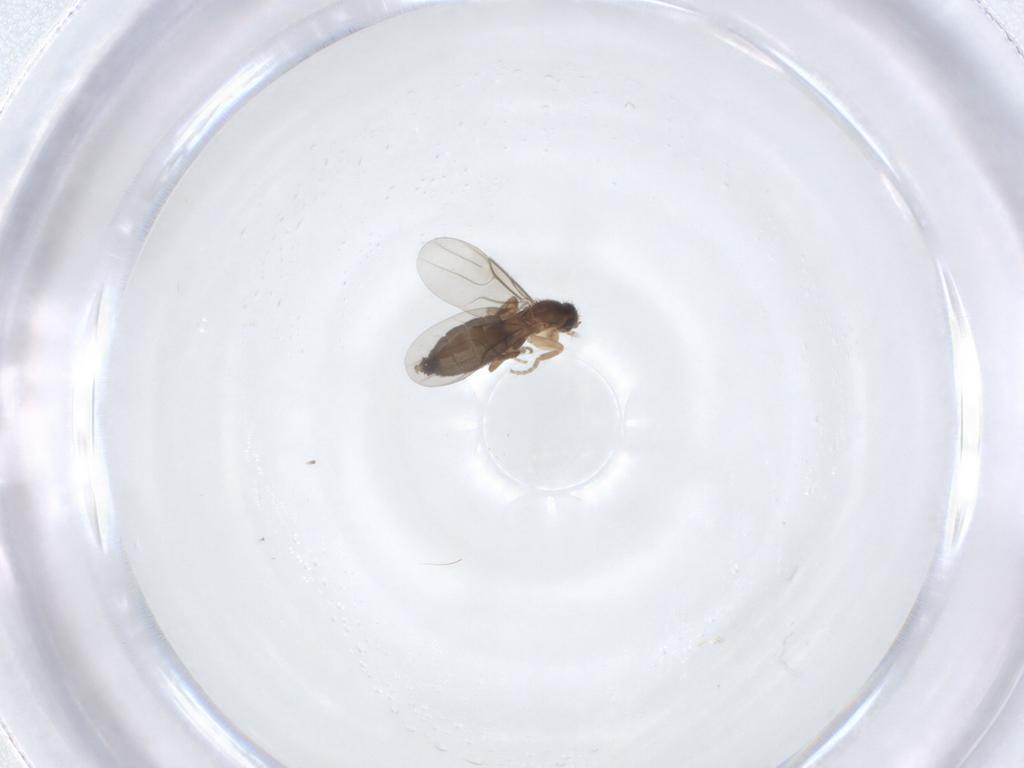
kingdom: Animalia
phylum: Arthropoda
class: Insecta
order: Diptera
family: Phoridae
